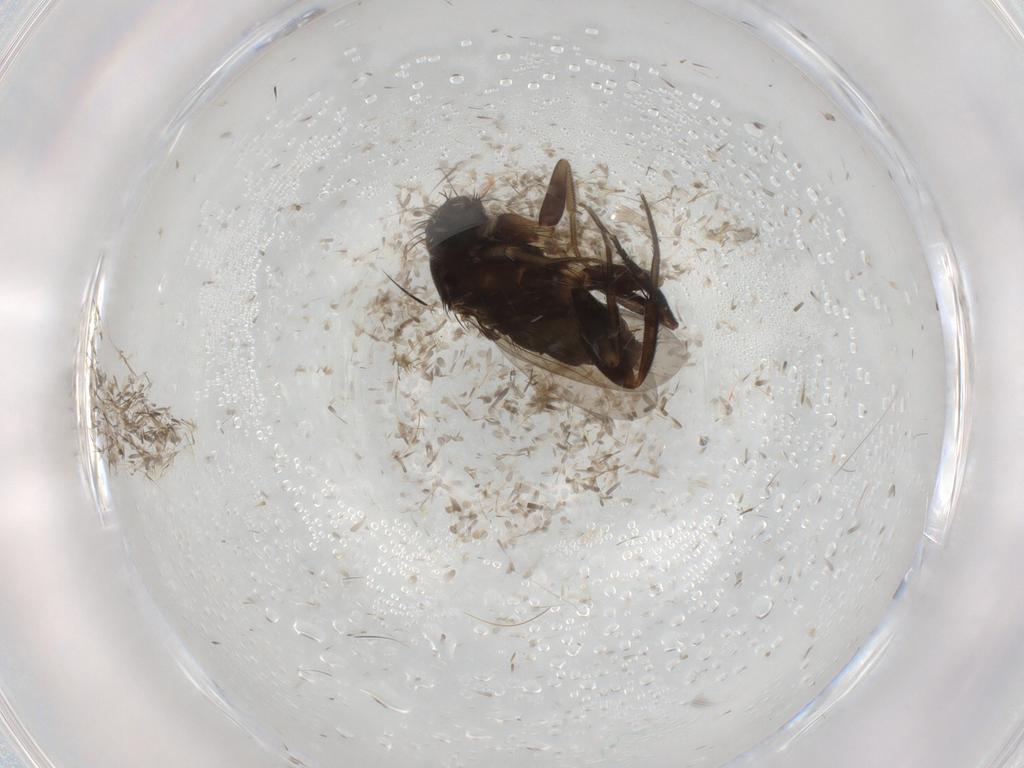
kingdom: Animalia
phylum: Arthropoda
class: Insecta
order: Diptera
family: Phoridae
